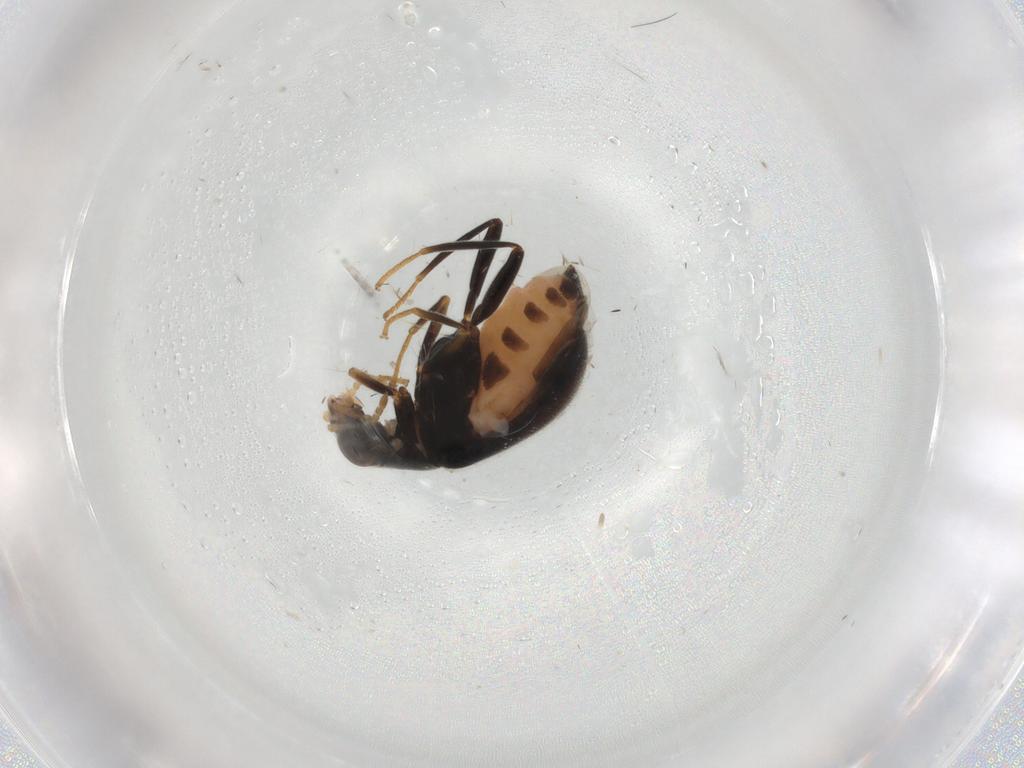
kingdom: Animalia
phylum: Arthropoda
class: Insecta
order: Coleoptera
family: Melyridae
